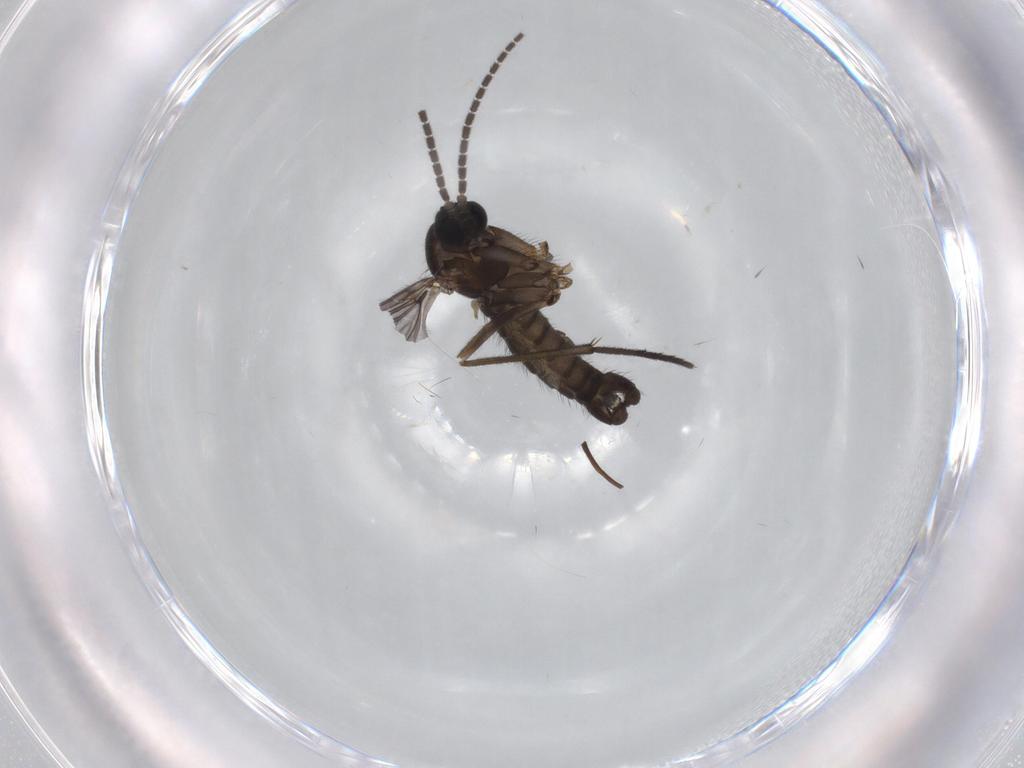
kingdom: Animalia
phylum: Arthropoda
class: Insecta
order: Diptera
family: Sciaridae
